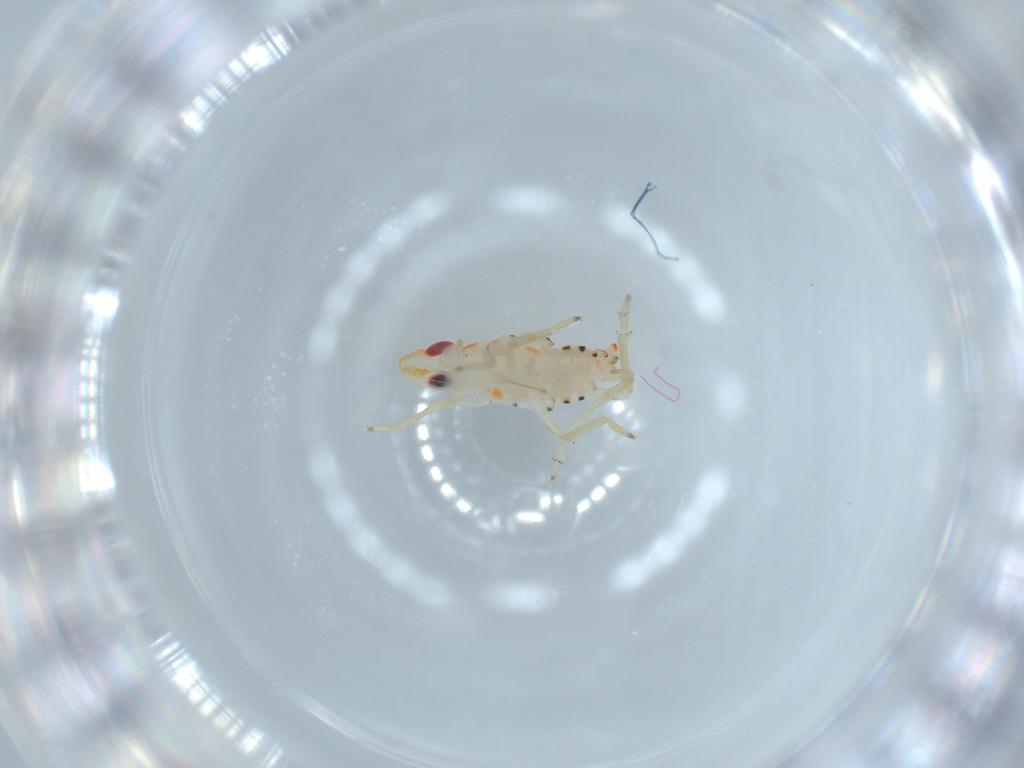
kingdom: Animalia
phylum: Arthropoda
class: Insecta
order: Hemiptera
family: Tropiduchidae
